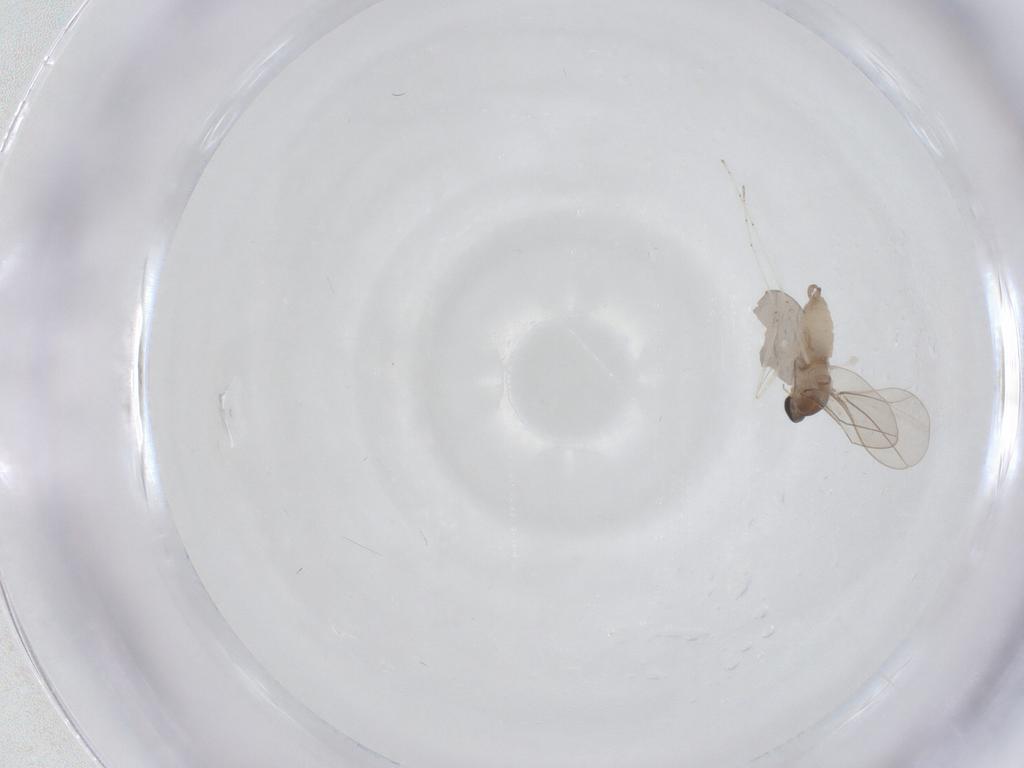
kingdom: Animalia
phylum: Arthropoda
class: Insecta
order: Diptera
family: Cecidomyiidae
